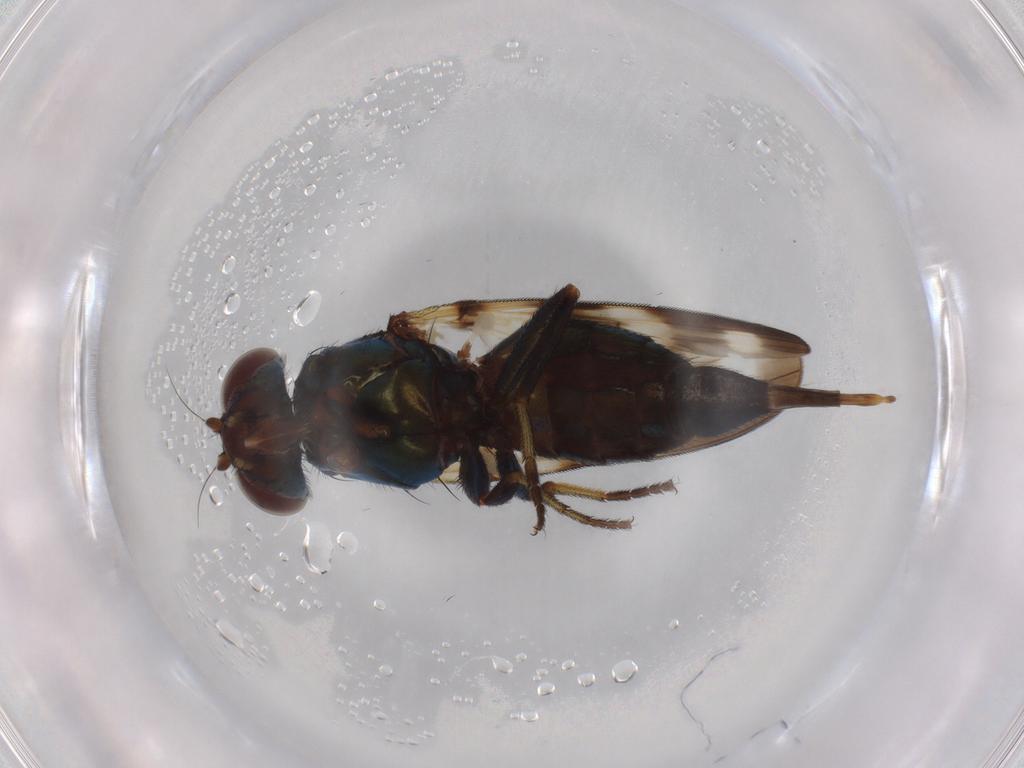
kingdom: Animalia
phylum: Arthropoda
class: Insecta
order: Diptera
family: Ulidiidae
